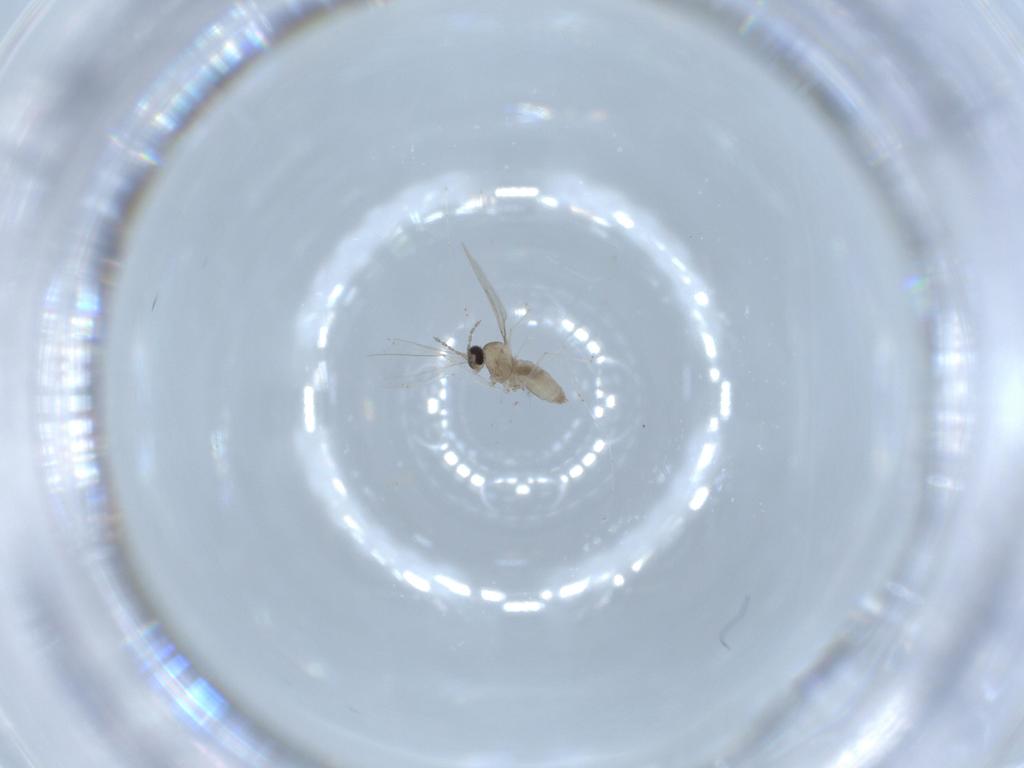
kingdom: Animalia
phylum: Arthropoda
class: Insecta
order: Diptera
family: Cecidomyiidae
